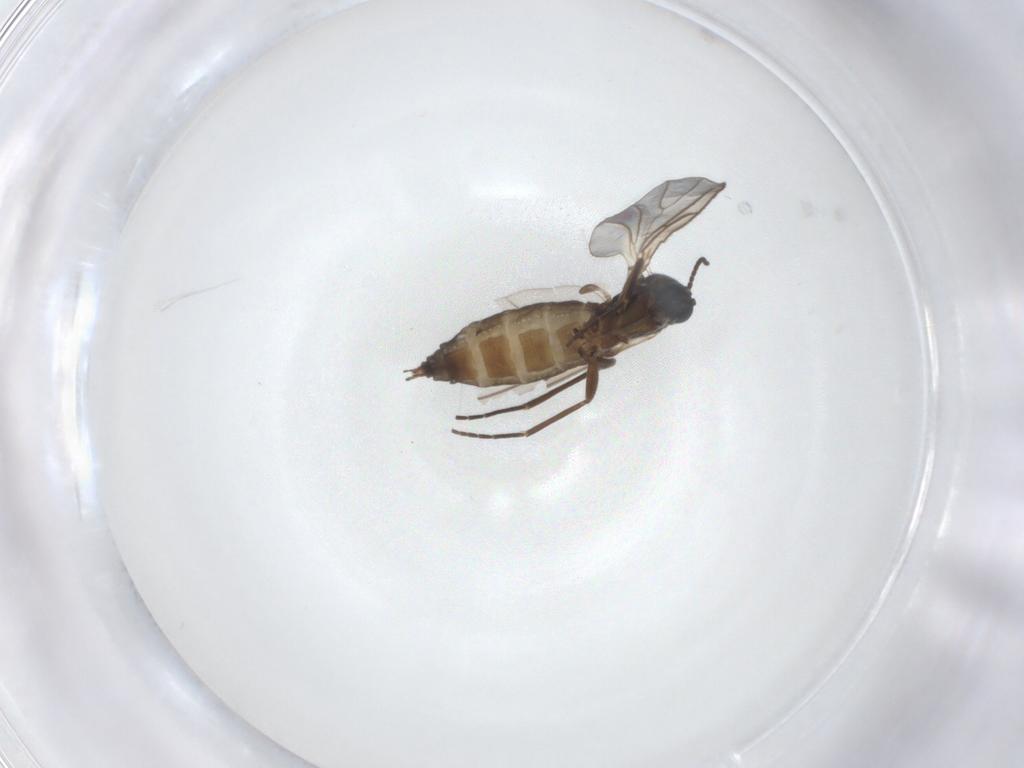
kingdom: Animalia
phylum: Arthropoda
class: Insecta
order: Diptera
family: Sciaridae
